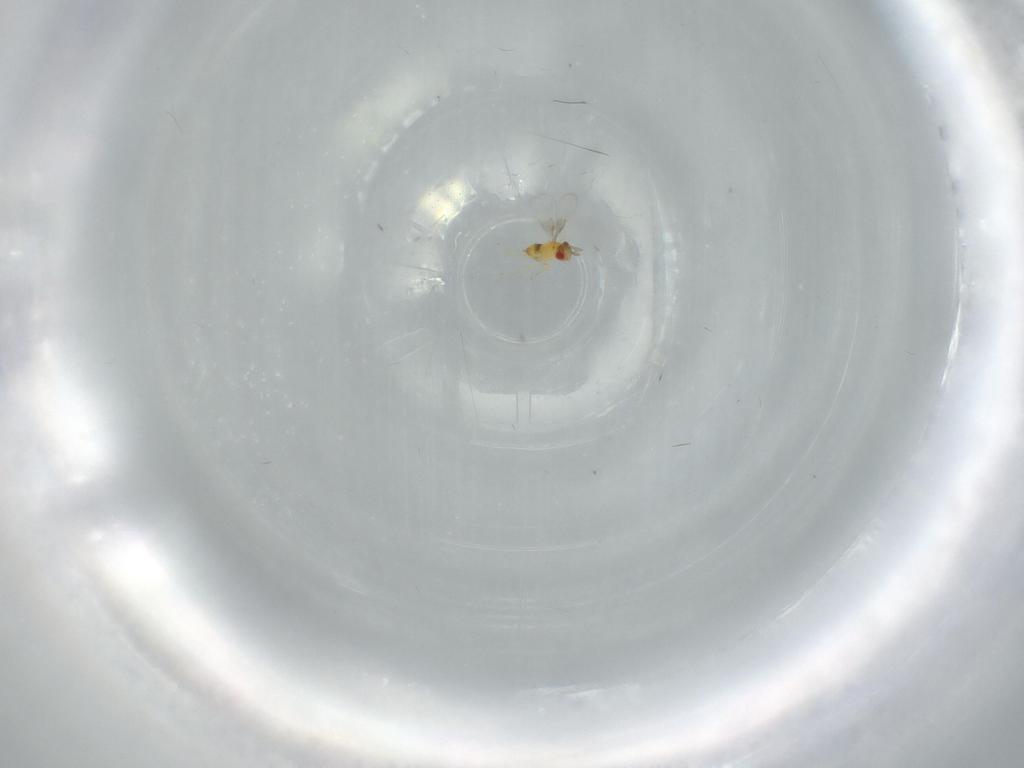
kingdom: Animalia
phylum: Arthropoda
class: Insecta
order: Hymenoptera
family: Trichogrammatidae
